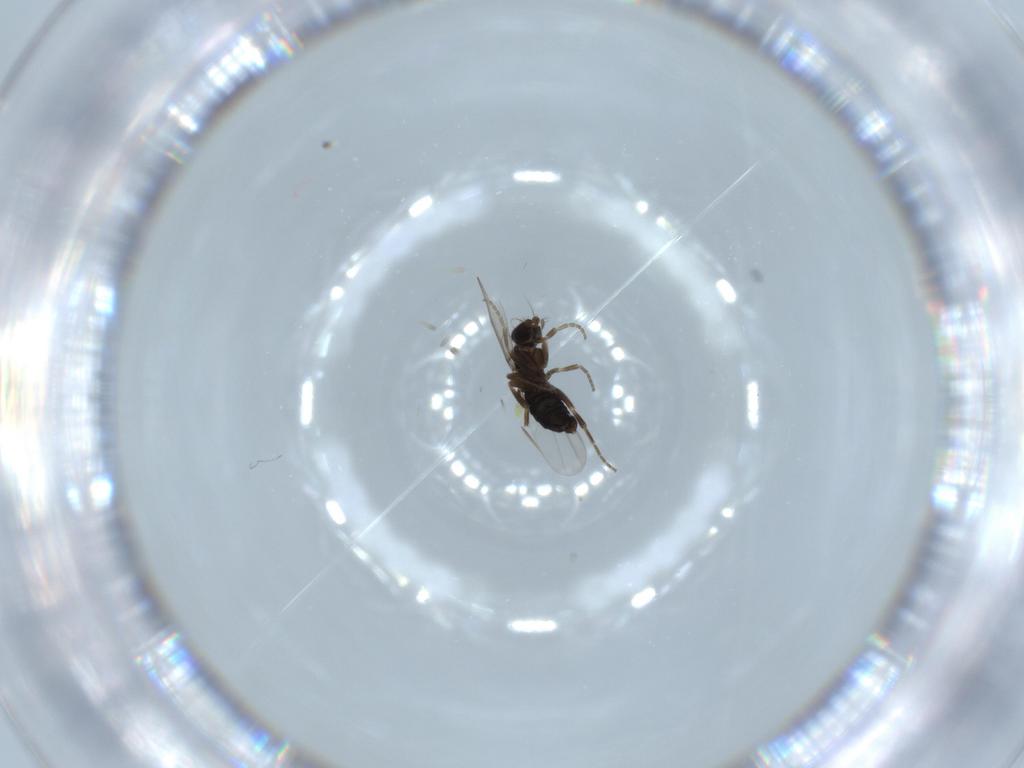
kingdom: Animalia
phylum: Arthropoda
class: Insecta
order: Diptera
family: Phoridae
